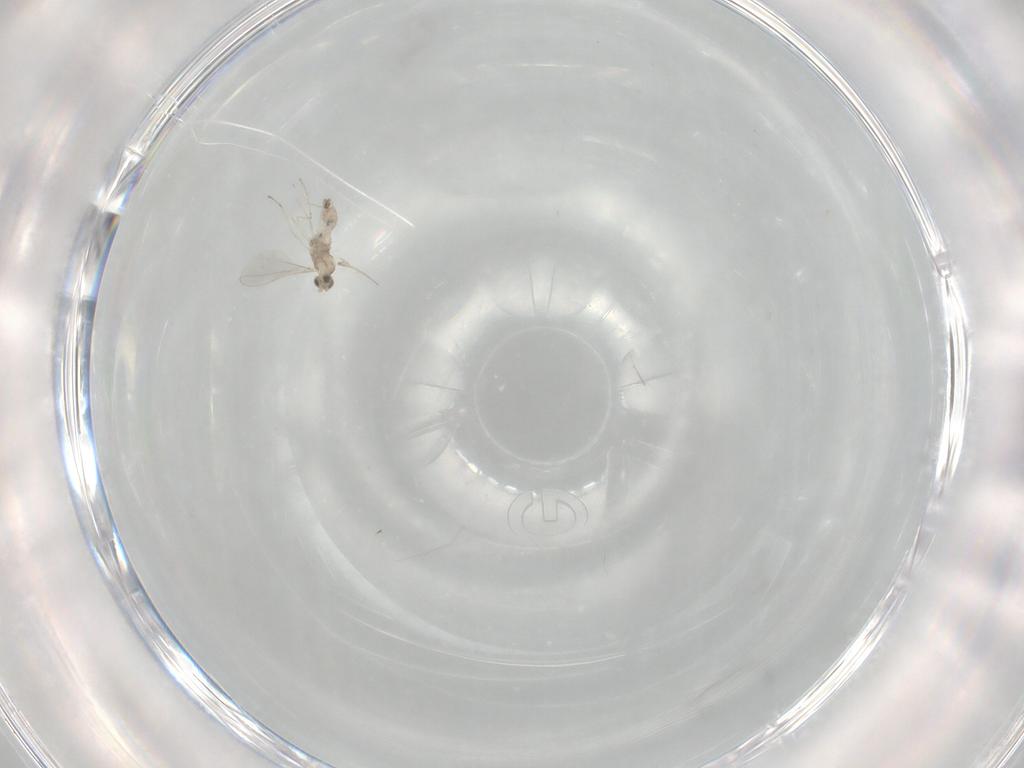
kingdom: Animalia
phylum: Arthropoda
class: Insecta
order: Diptera
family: Cecidomyiidae
